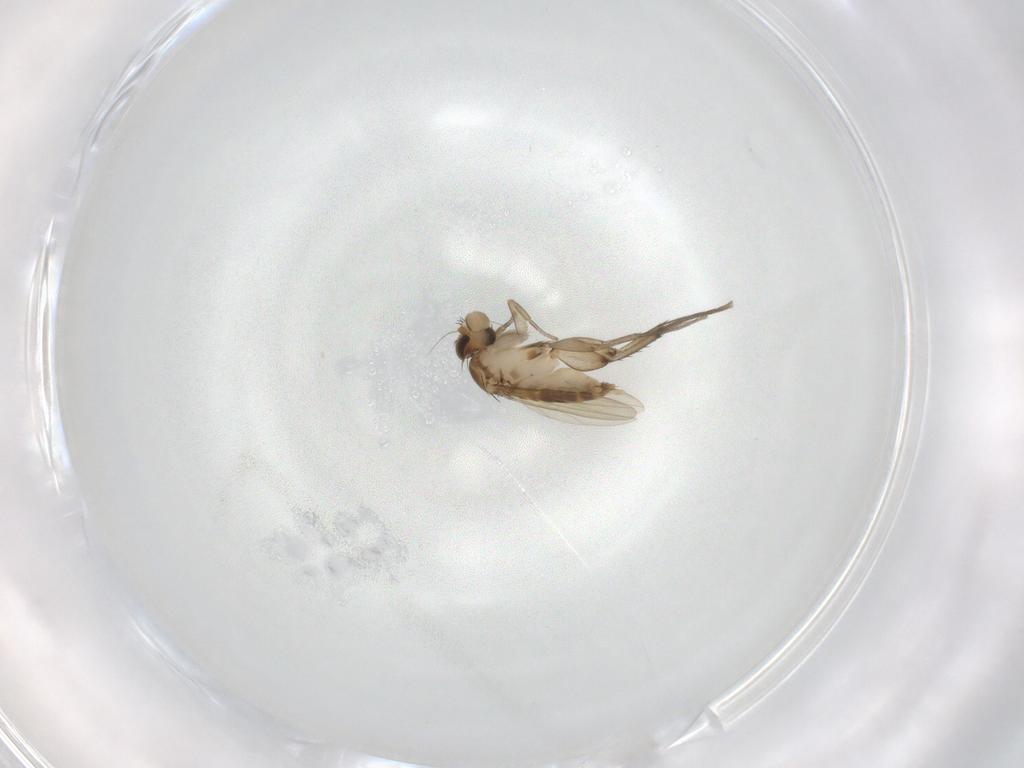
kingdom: Animalia
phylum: Arthropoda
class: Insecta
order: Diptera
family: Phoridae
